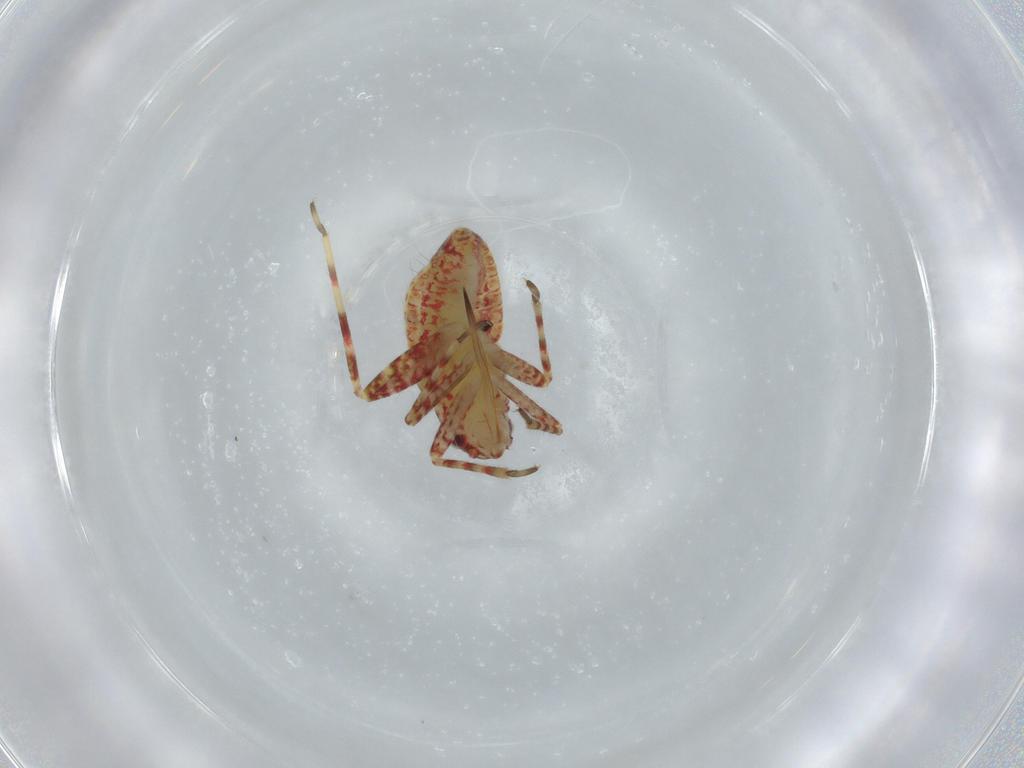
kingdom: Animalia
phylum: Arthropoda
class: Insecta
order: Hemiptera
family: Miridae
